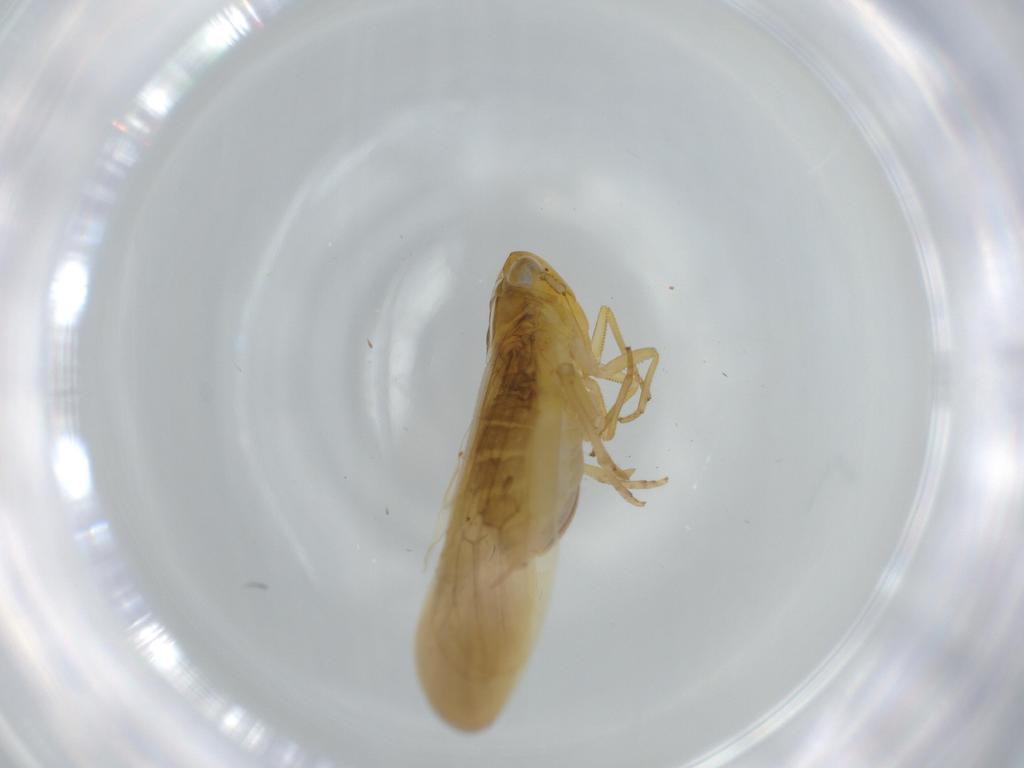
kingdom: Animalia
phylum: Arthropoda
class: Insecta
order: Hemiptera
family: Delphacidae
